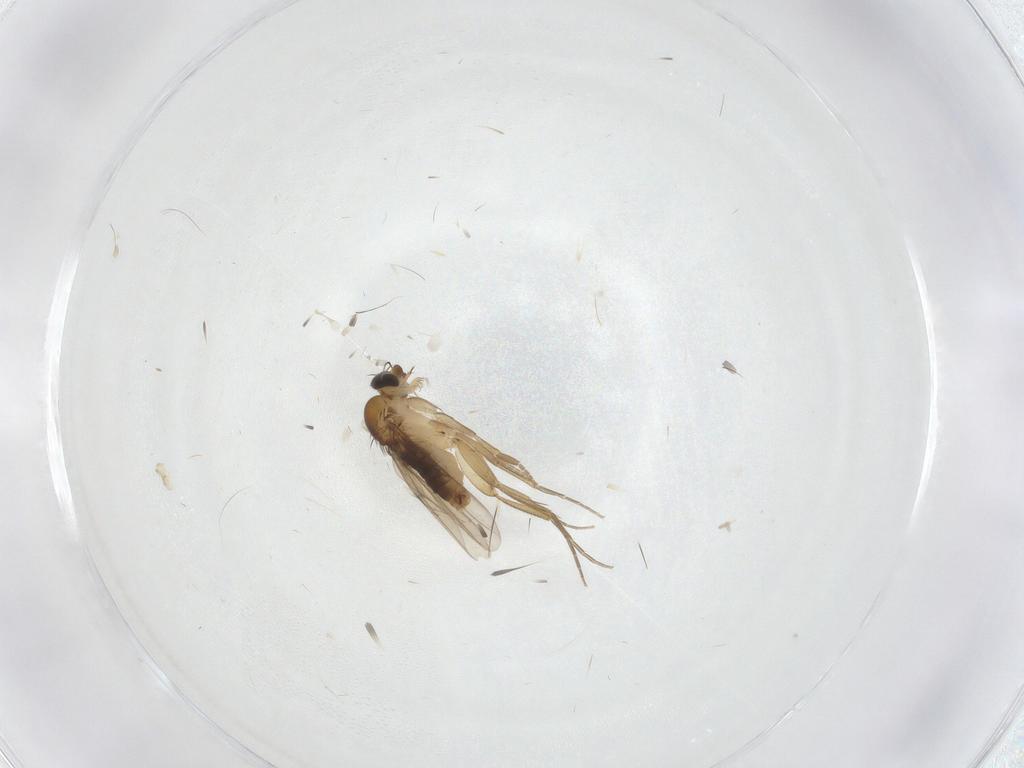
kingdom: Animalia
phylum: Arthropoda
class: Insecta
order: Diptera
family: Phoridae
